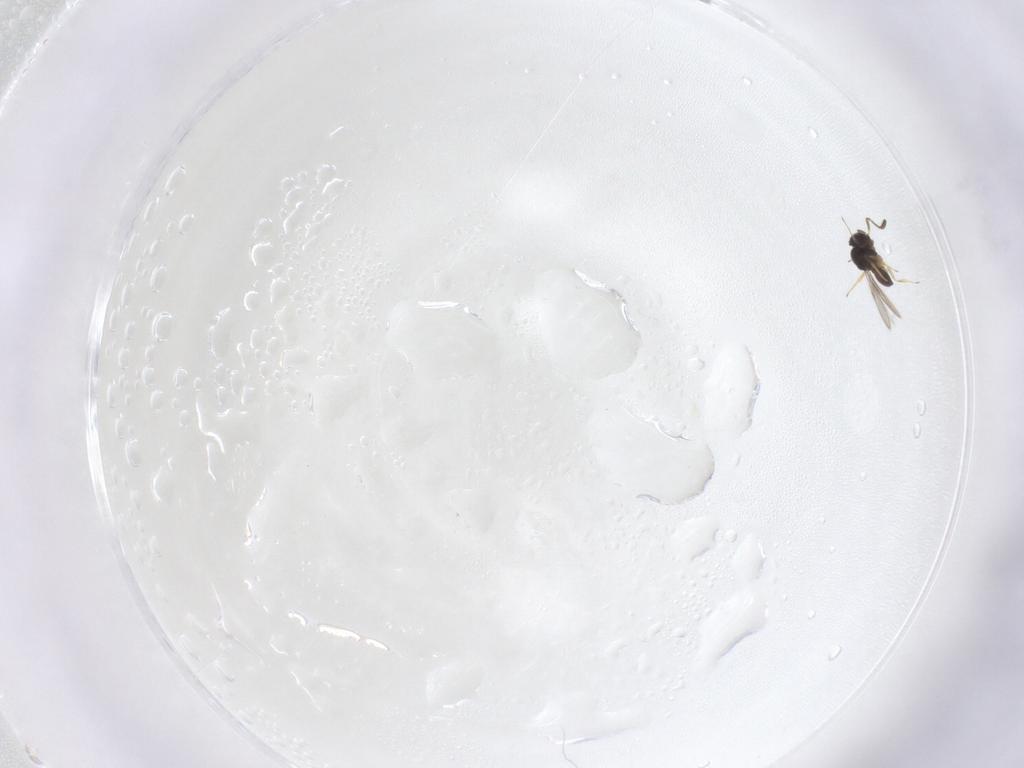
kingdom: Animalia
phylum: Arthropoda
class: Insecta
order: Hymenoptera
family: Scelionidae
